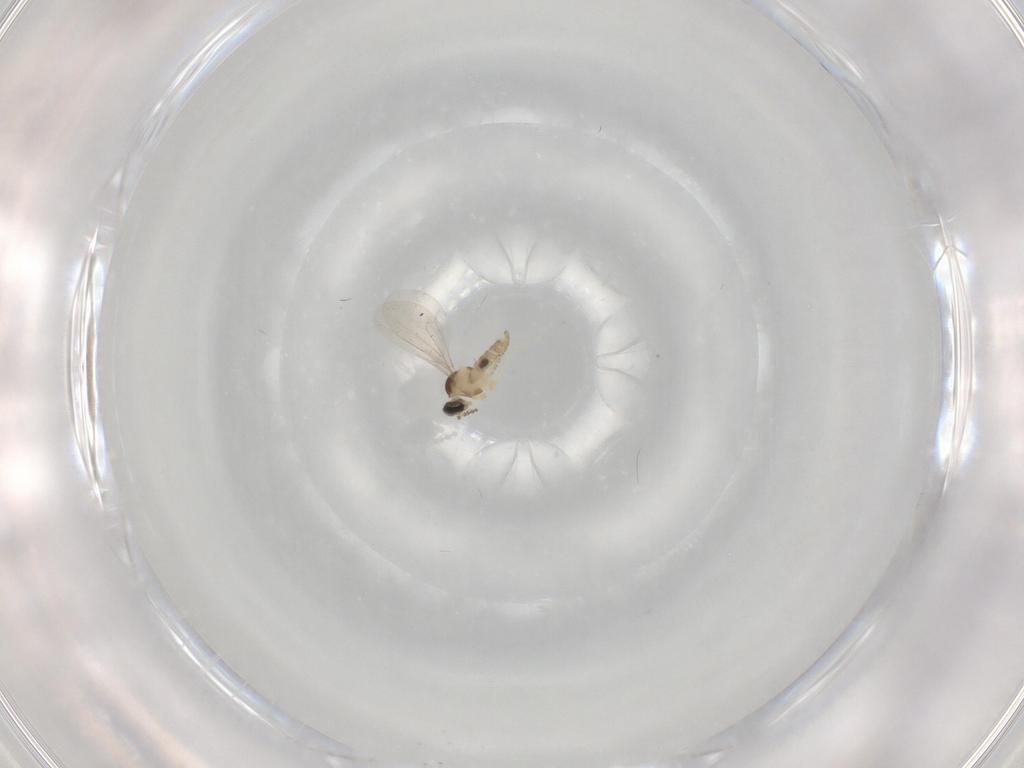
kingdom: Animalia
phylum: Arthropoda
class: Insecta
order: Diptera
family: Cecidomyiidae
